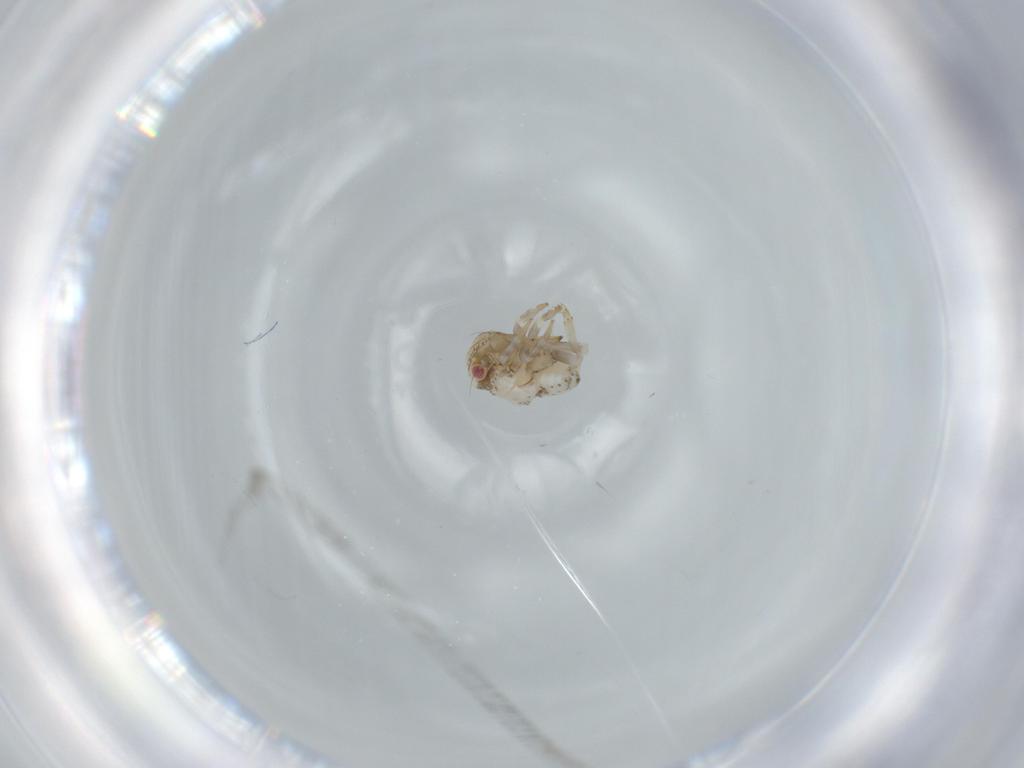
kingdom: Animalia
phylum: Arthropoda
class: Insecta
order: Hemiptera
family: Acanaloniidae
